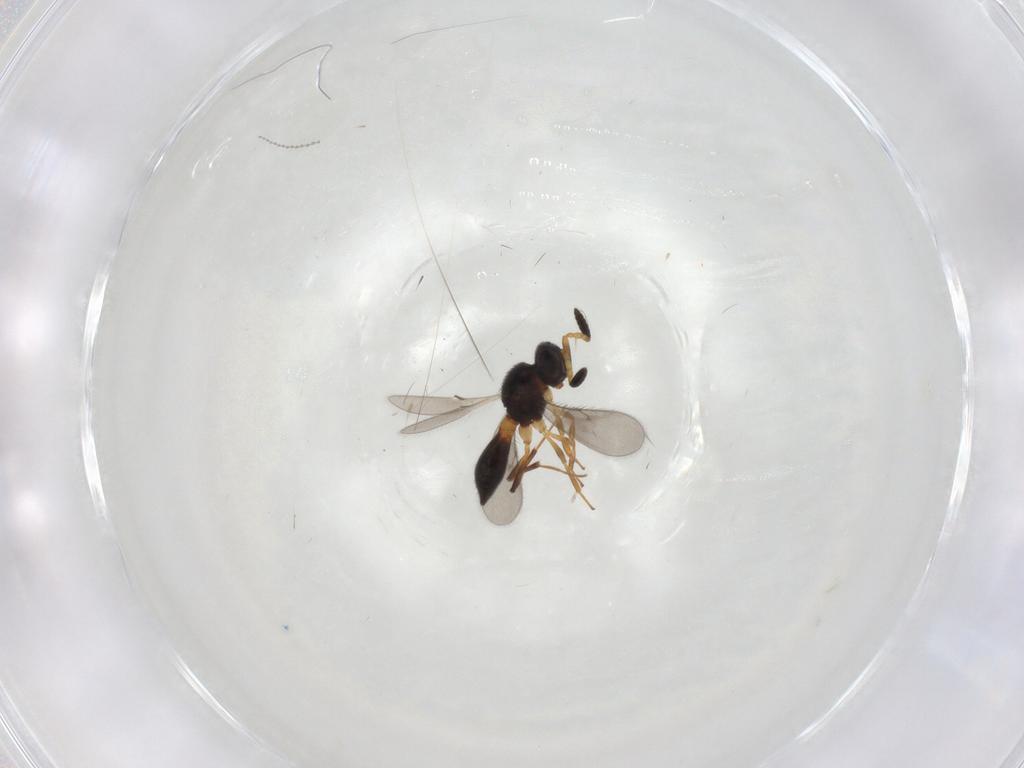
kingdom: Animalia
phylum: Arthropoda
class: Insecta
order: Hymenoptera
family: Scelionidae
